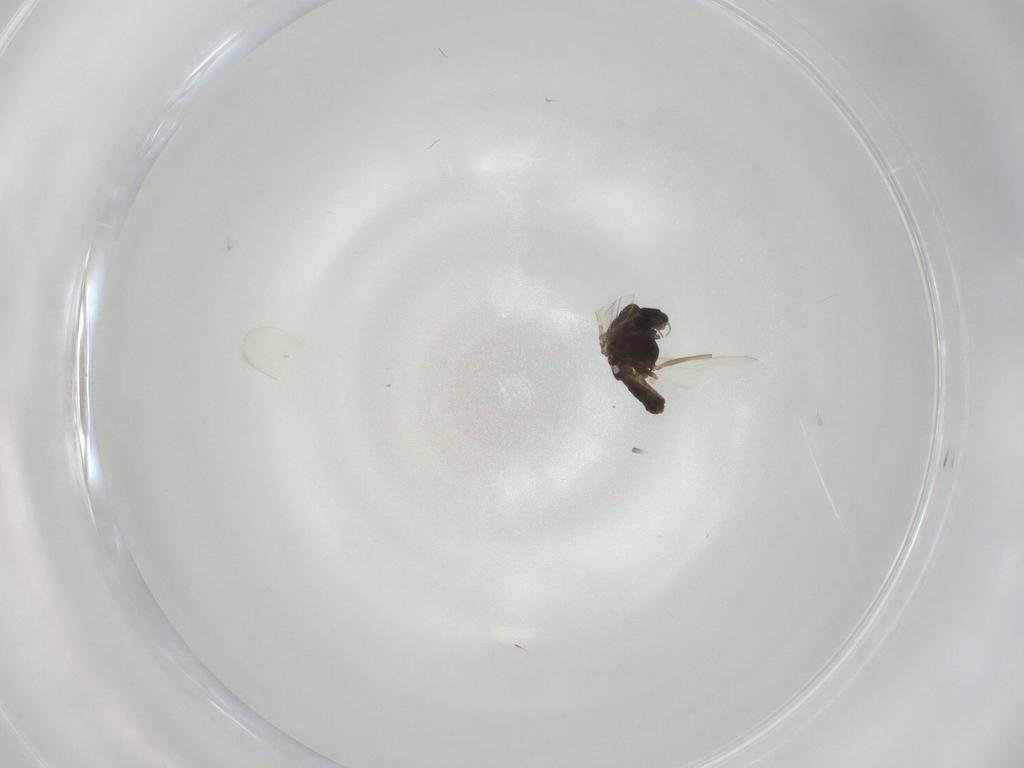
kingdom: Animalia
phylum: Arthropoda
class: Insecta
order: Diptera
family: Chironomidae
